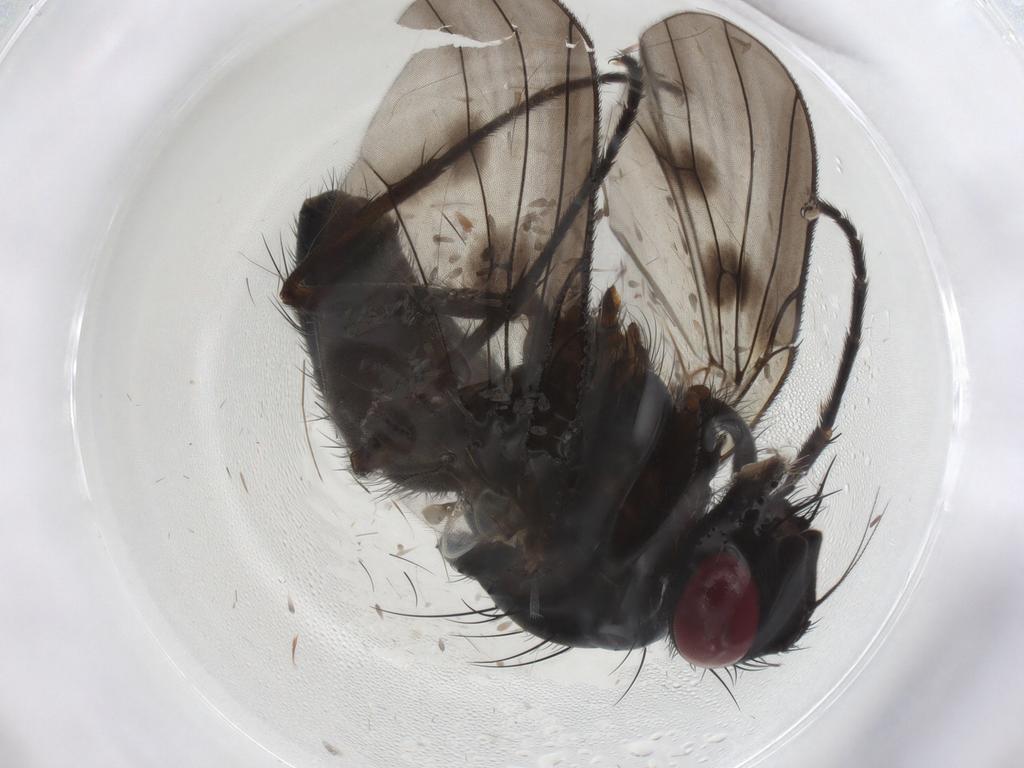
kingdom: Animalia
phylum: Arthropoda
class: Insecta
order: Diptera
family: Muscidae
